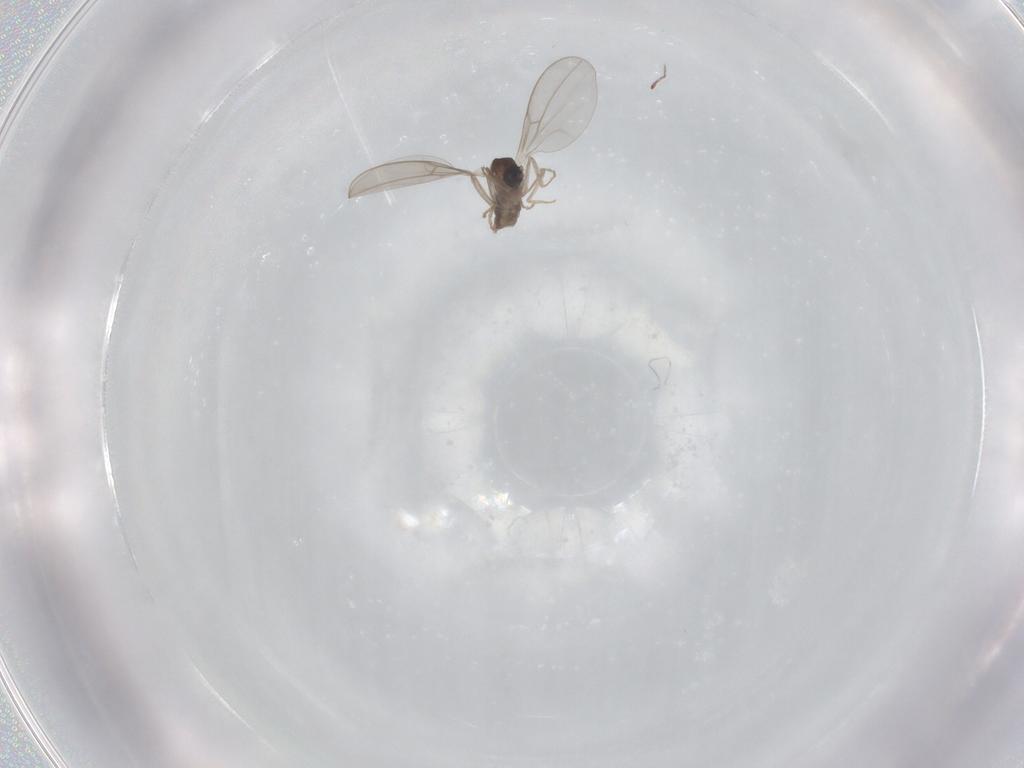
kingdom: Animalia
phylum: Arthropoda
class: Insecta
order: Diptera
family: Cecidomyiidae
